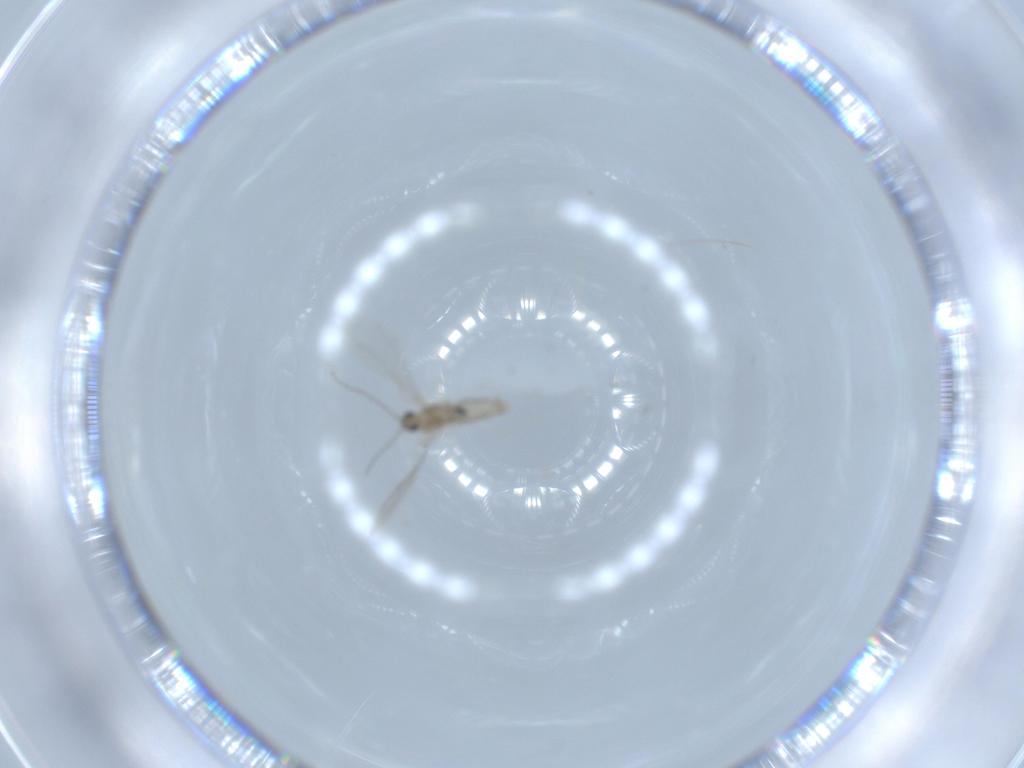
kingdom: Animalia
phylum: Arthropoda
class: Insecta
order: Diptera
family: Cecidomyiidae
